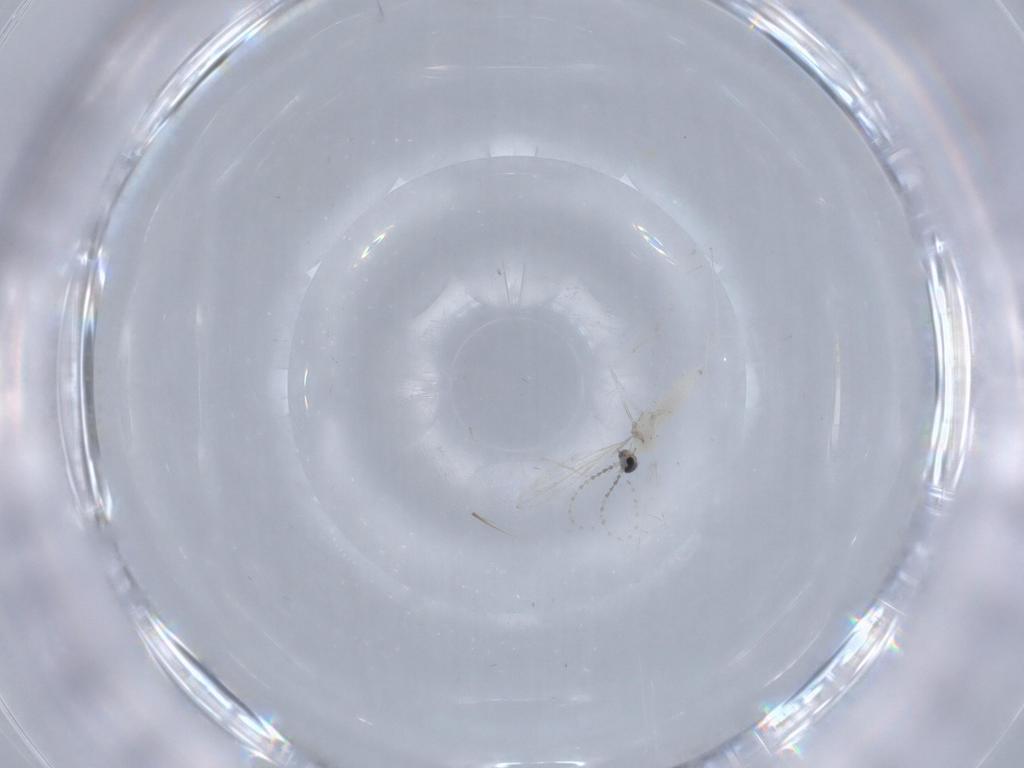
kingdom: Animalia
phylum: Arthropoda
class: Insecta
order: Diptera
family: Cecidomyiidae
